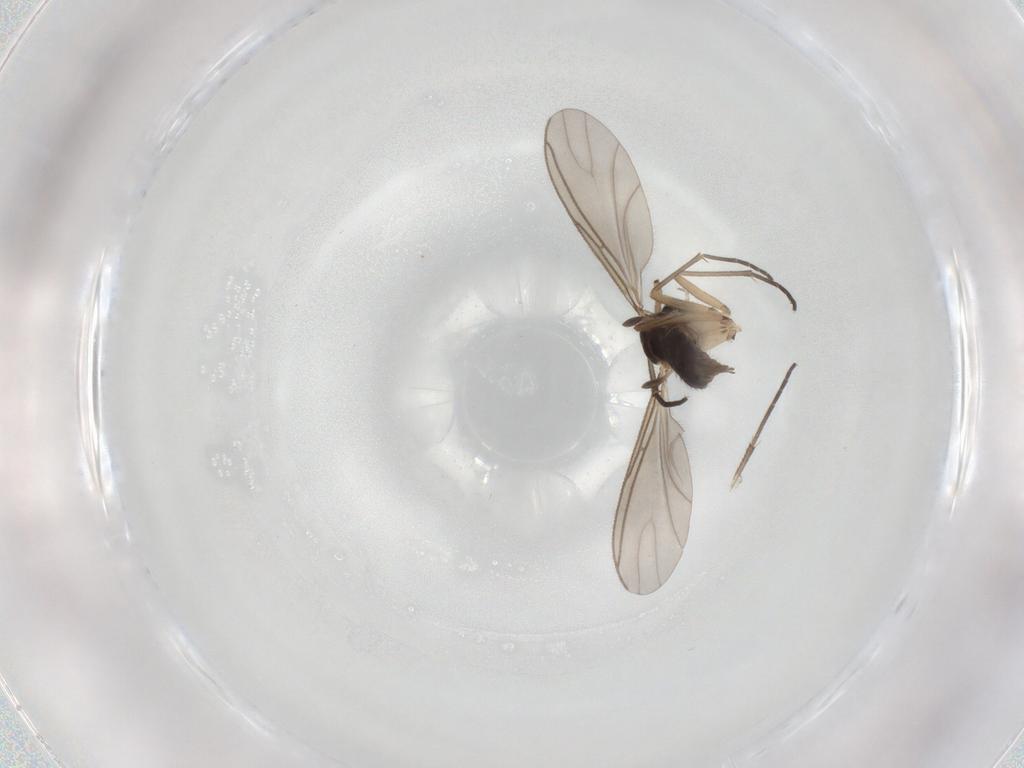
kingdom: Animalia
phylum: Arthropoda
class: Insecta
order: Diptera
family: Sciaridae
